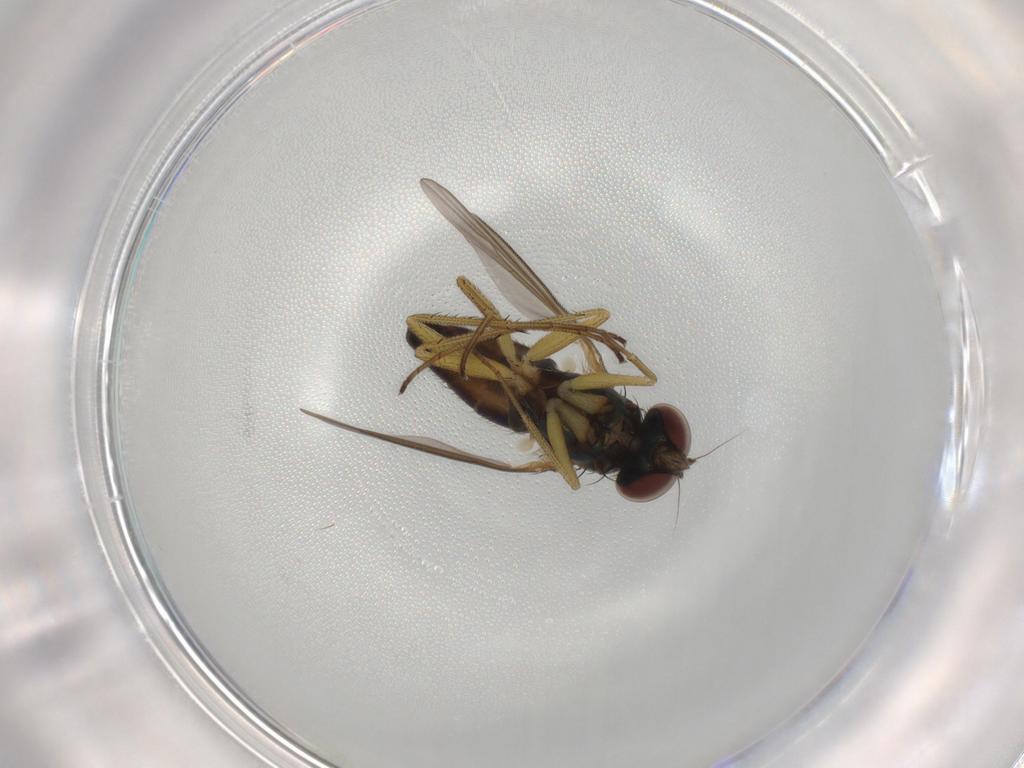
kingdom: Animalia
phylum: Arthropoda
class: Insecta
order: Diptera
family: Dolichopodidae
